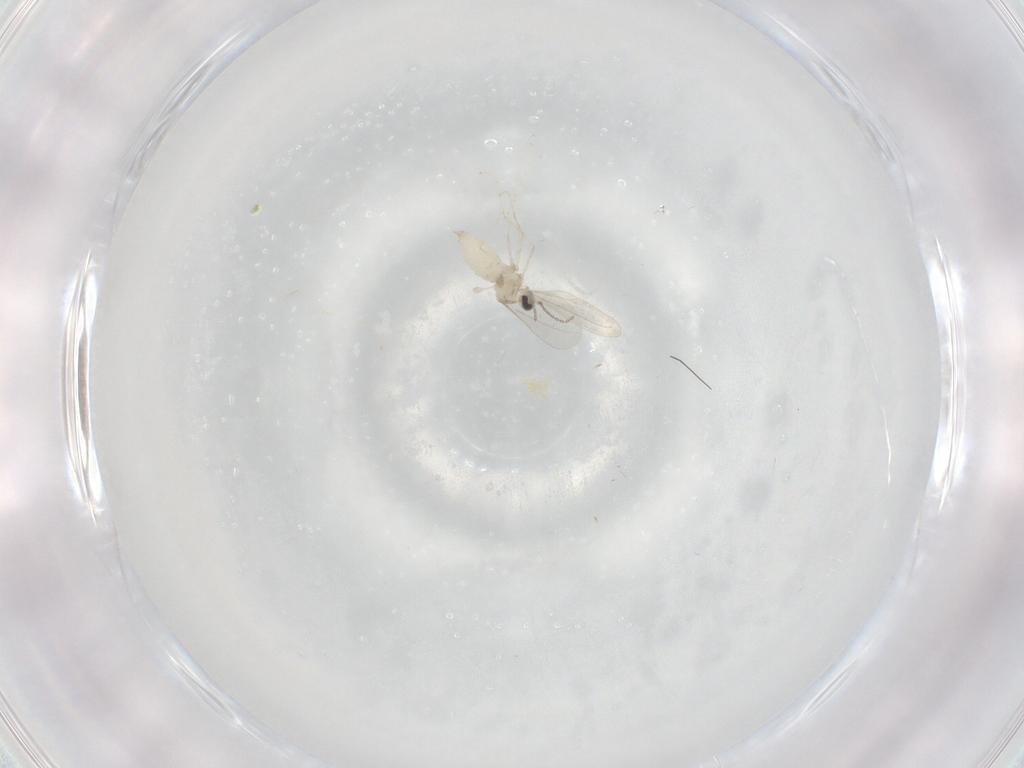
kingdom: Animalia
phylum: Arthropoda
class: Insecta
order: Diptera
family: Cecidomyiidae
